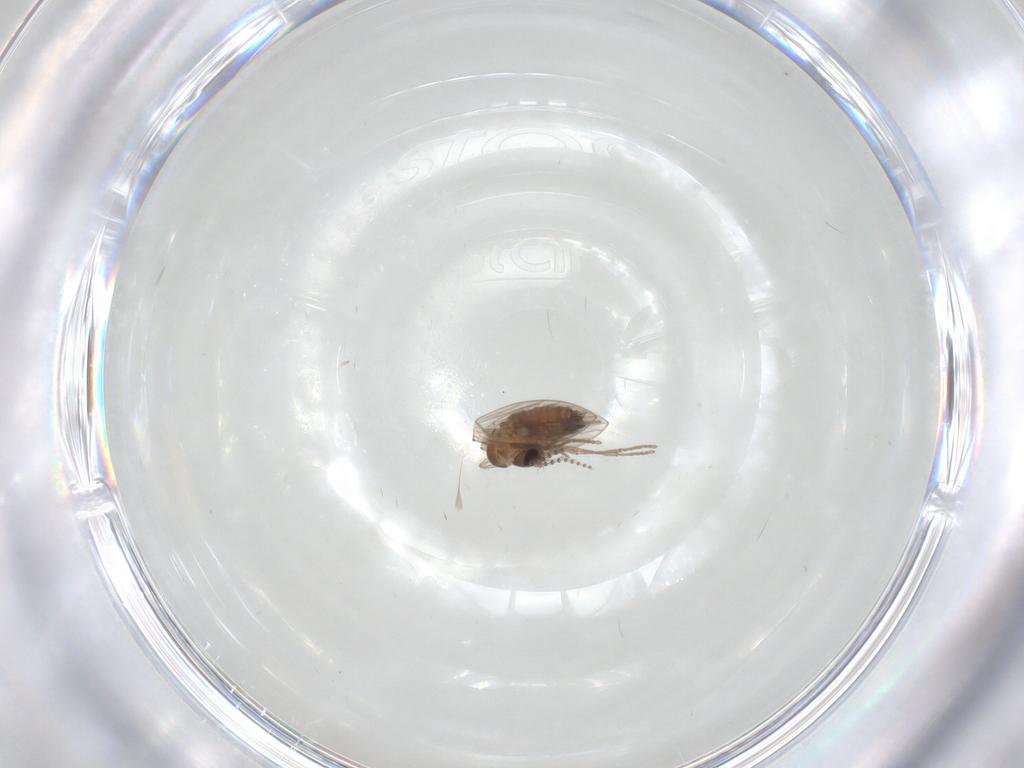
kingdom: Animalia
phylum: Arthropoda
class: Insecta
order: Diptera
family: Psychodidae
